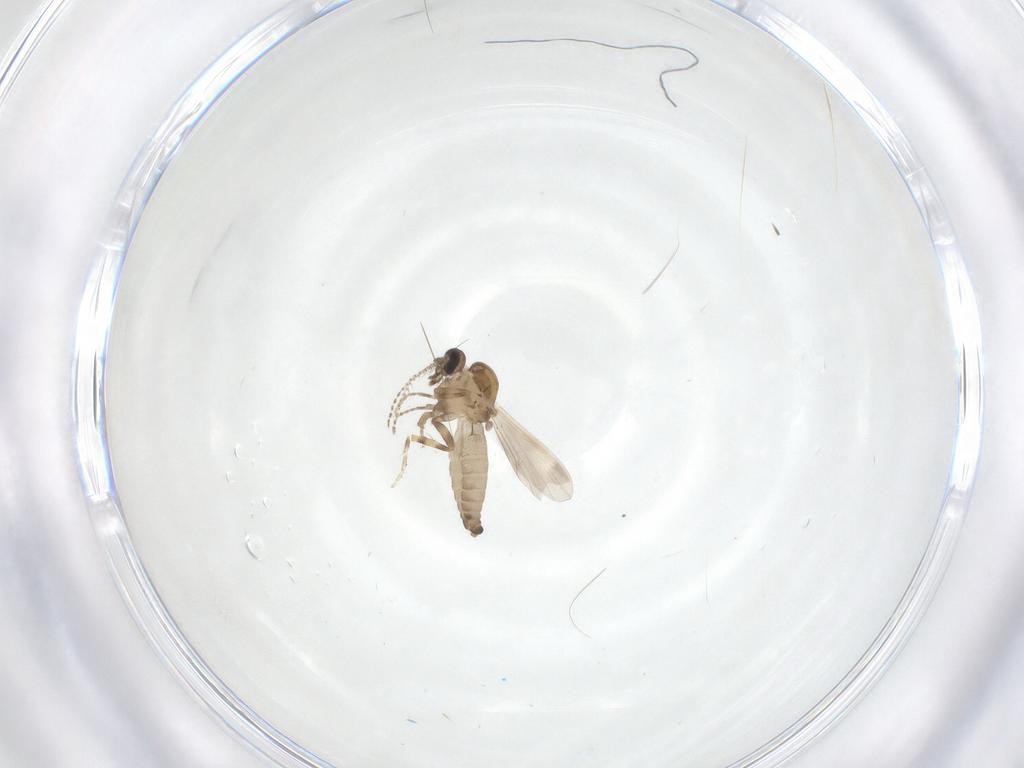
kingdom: Animalia
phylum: Arthropoda
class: Insecta
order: Diptera
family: Ceratopogonidae
